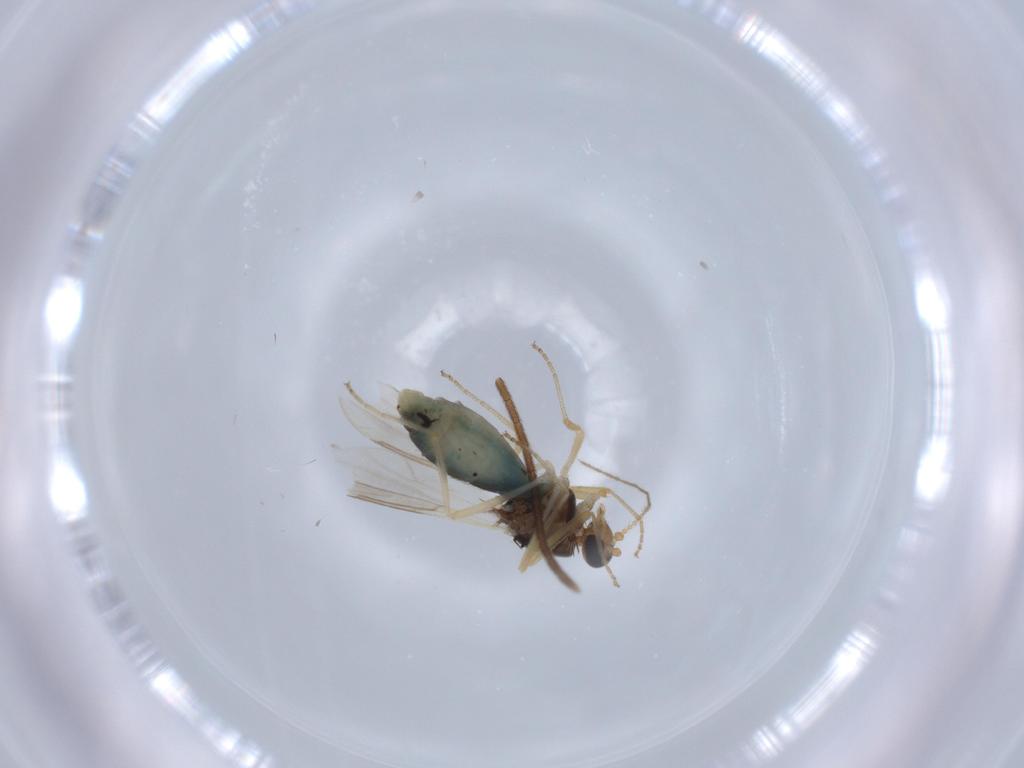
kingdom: Animalia
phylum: Arthropoda
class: Insecta
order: Diptera
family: Ceratopogonidae
